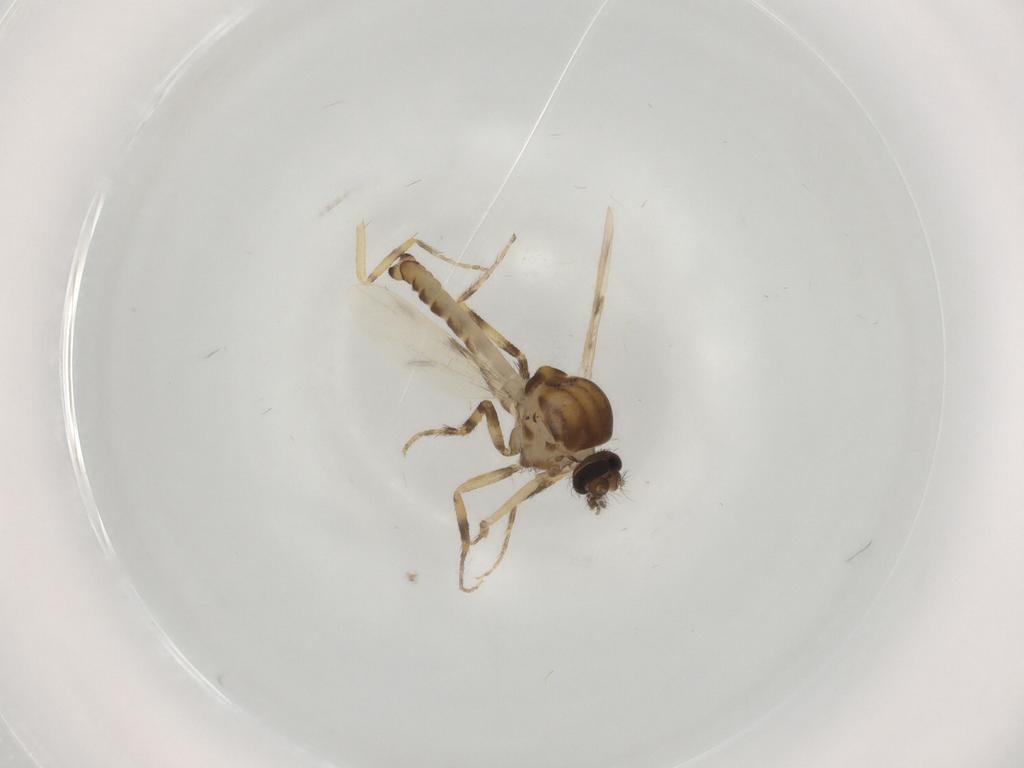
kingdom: Animalia
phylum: Arthropoda
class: Insecta
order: Diptera
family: Ceratopogonidae
